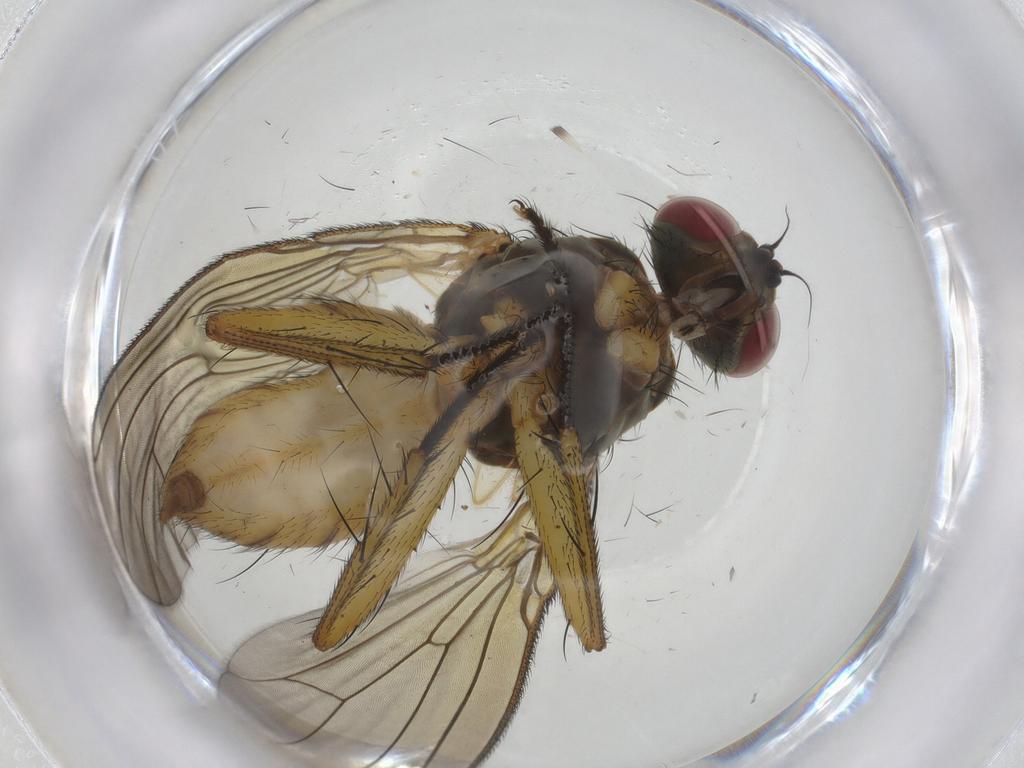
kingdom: Animalia
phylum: Arthropoda
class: Insecta
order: Diptera
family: Muscidae
